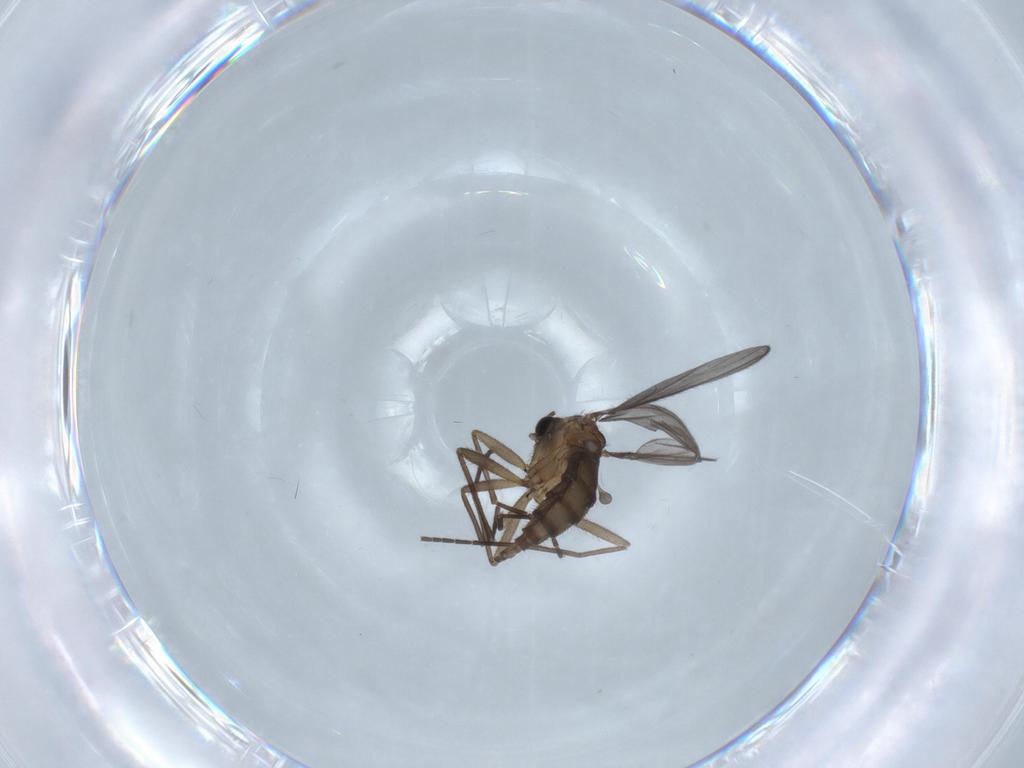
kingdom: Animalia
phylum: Arthropoda
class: Insecta
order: Diptera
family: Sciaridae
